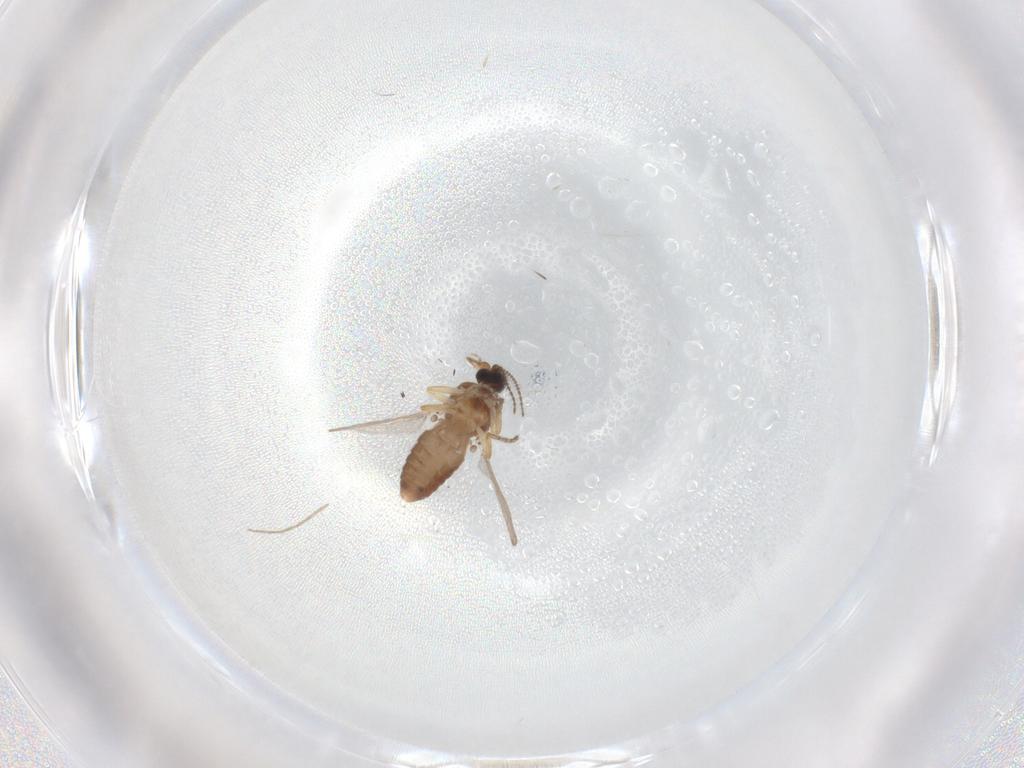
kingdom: Animalia
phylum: Arthropoda
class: Insecta
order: Diptera
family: Ceratopogonidae
